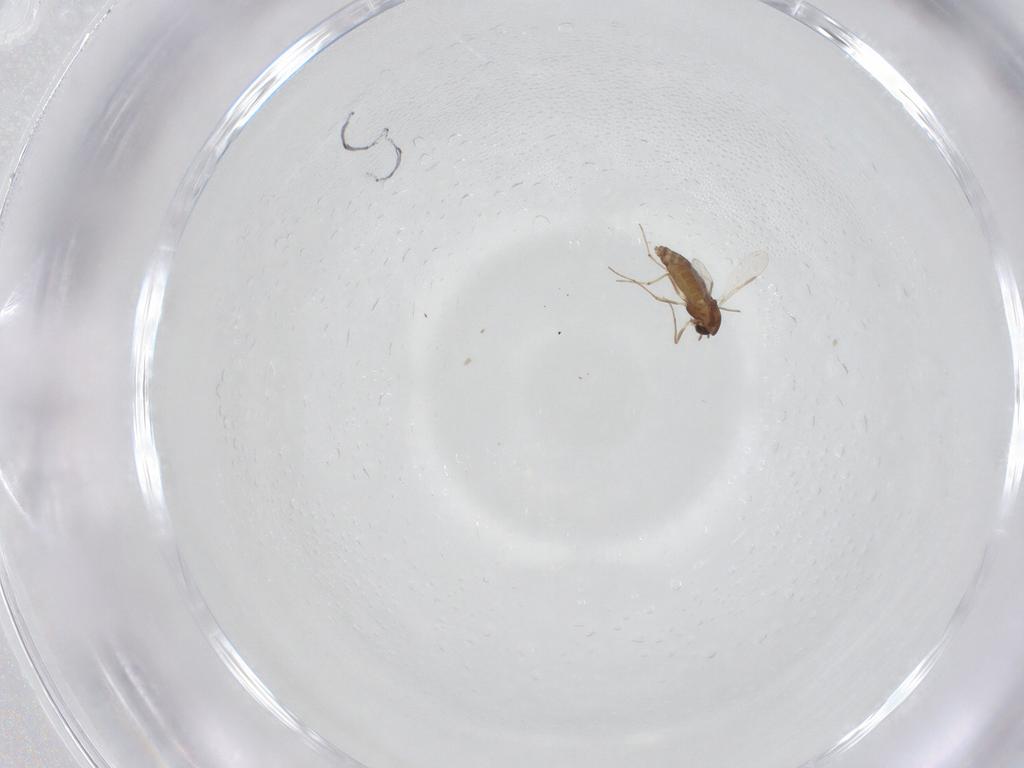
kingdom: Animalia
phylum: Arthropoda
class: Insecta
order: Diptera
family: Chironomidae
